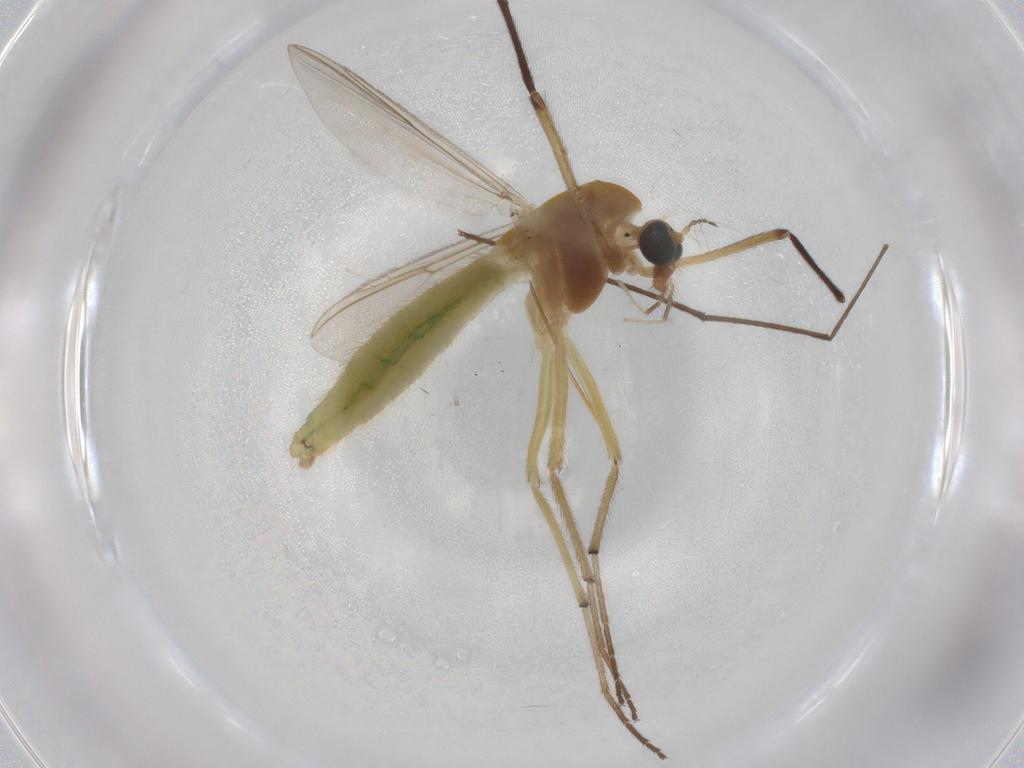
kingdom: Animalia
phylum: Arthropoda
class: Insecta
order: Diptera
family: Chironomidae
